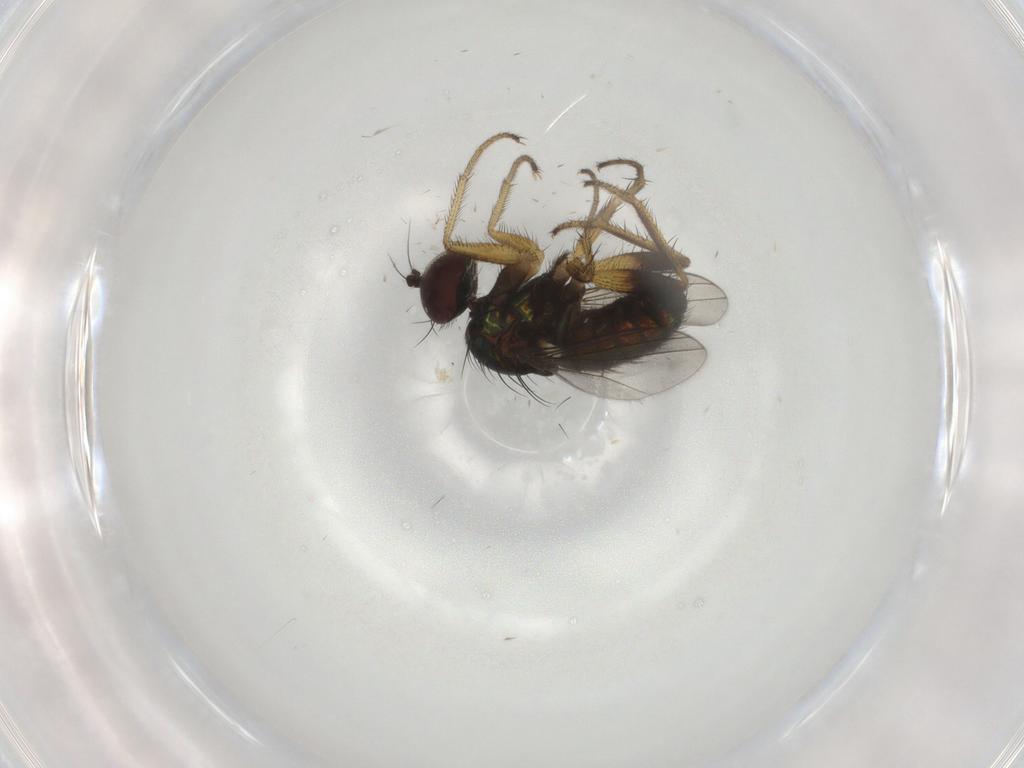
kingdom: Animalia
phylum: Arthropoda
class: Insecta
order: Diptera
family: Dolichopodidae
